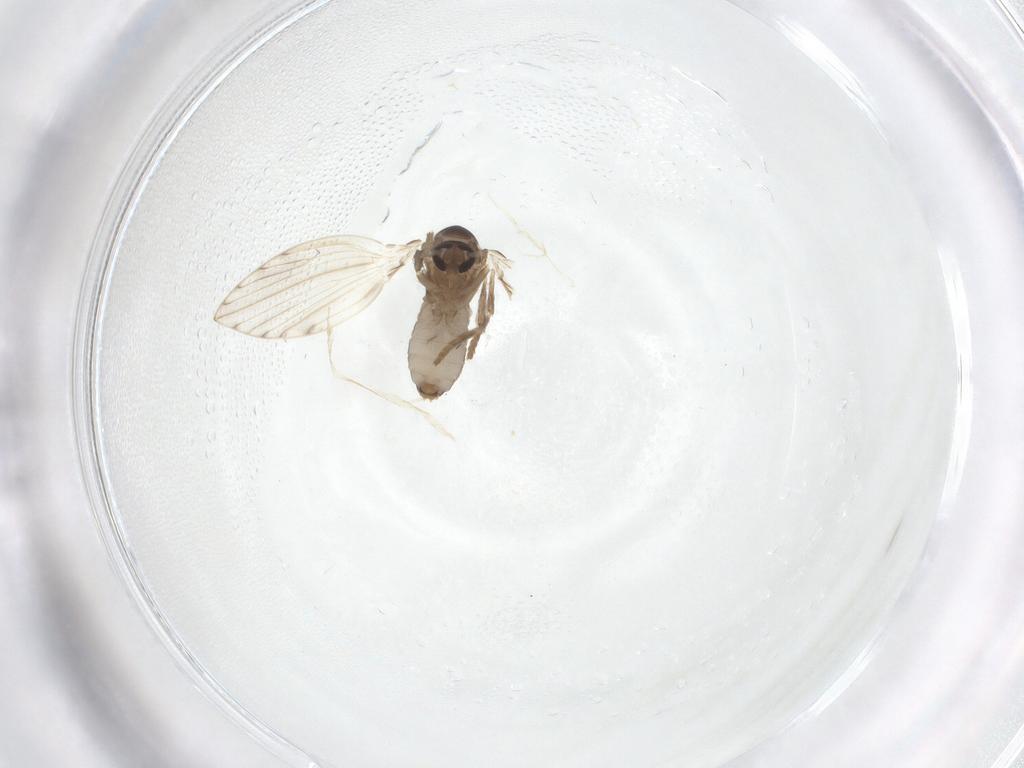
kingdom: Animalia
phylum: Arthropoda
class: Insecta
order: Diptera
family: Psychodidae
